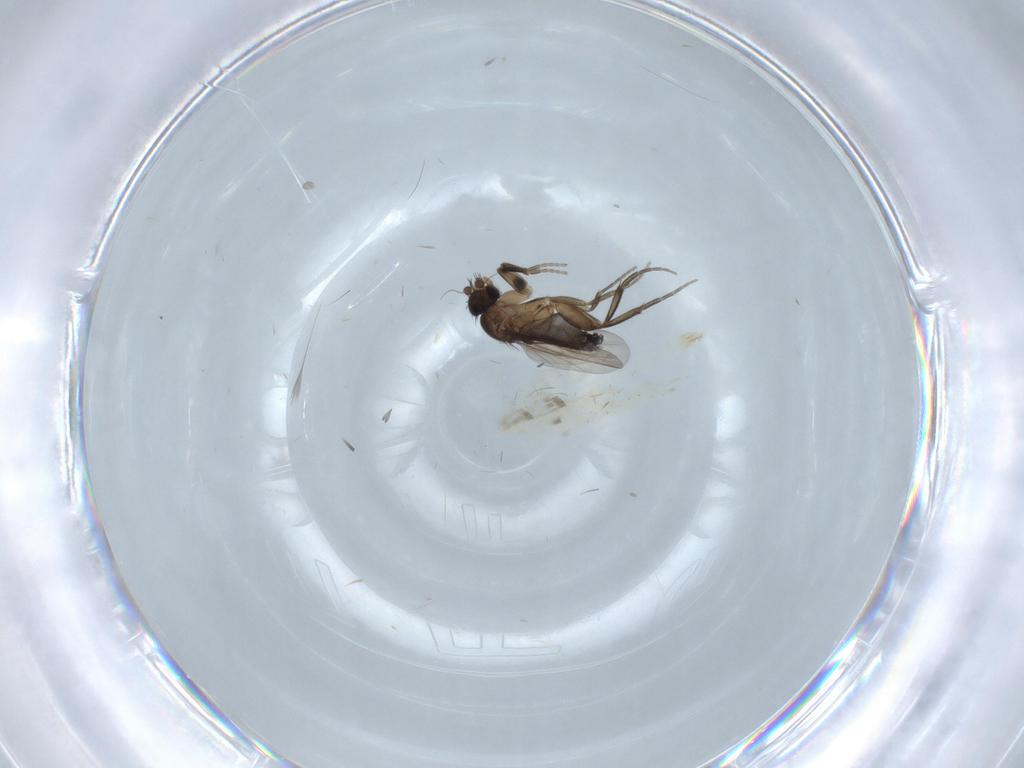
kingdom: Animalia
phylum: Arthropoda
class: Insecta
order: Diptera
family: Phoridae
